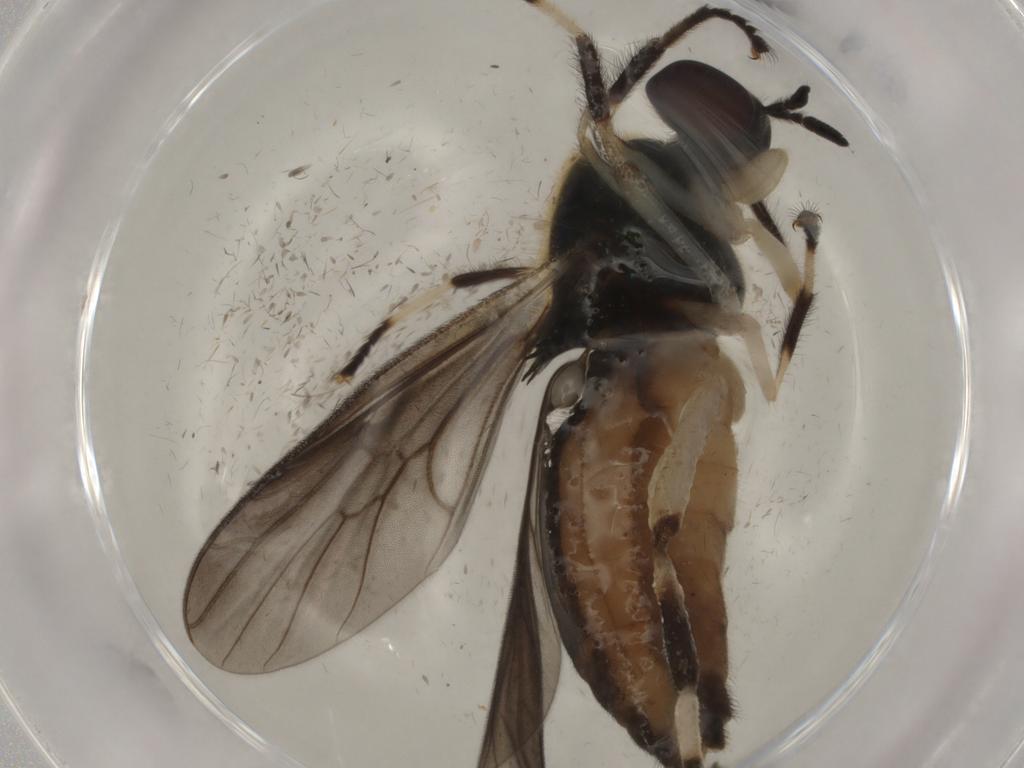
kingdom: Animalia
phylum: Arthropoda
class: Insecta
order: Diptera
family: Stratiomyidae
